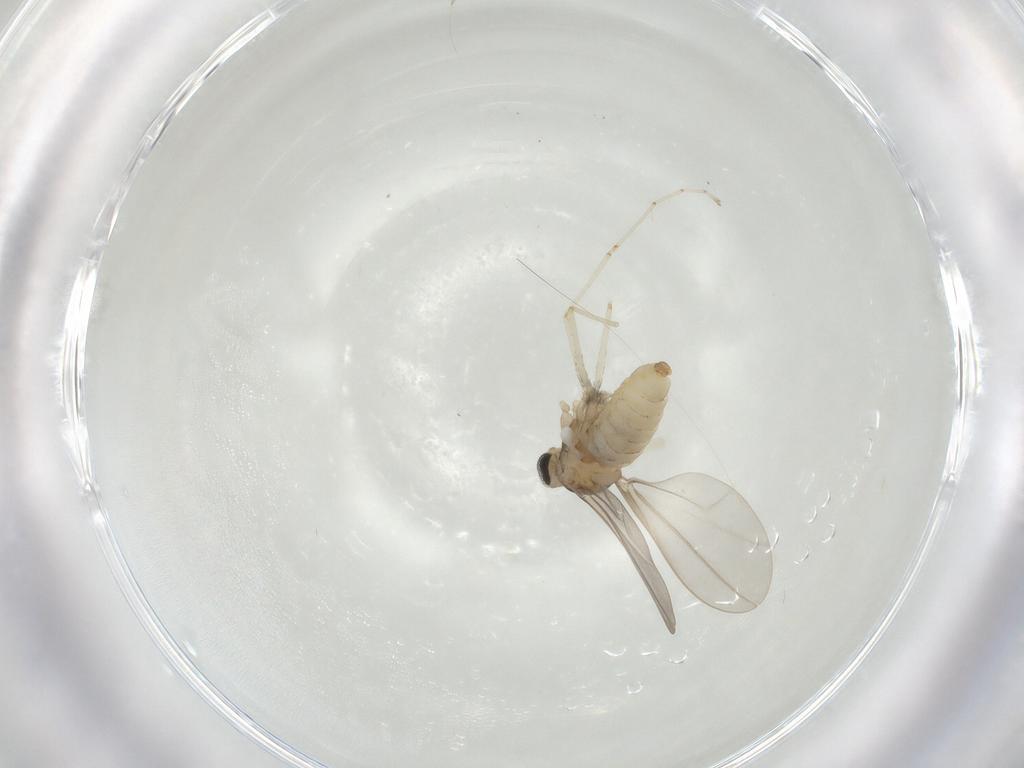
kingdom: Animalia
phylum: Arthropoda
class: Insecta
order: Diptera
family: Cecidomyiidae
